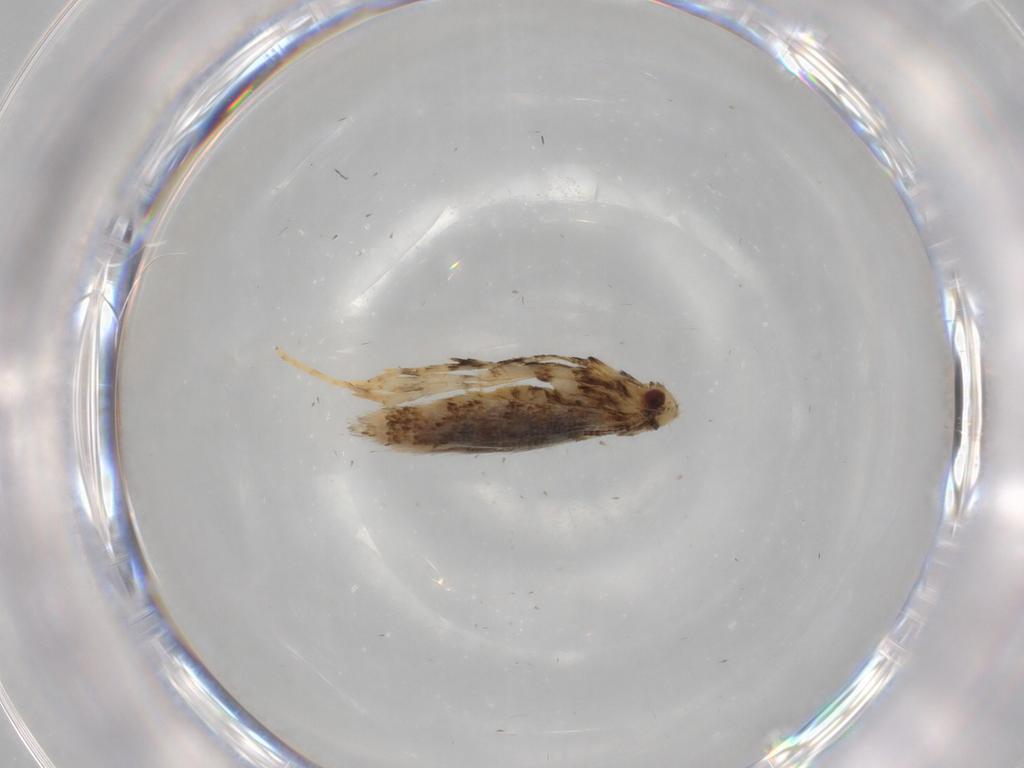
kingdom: Animalia
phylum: Arthropoda
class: Insecta
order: Lepidoptera
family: Gracillariidae
